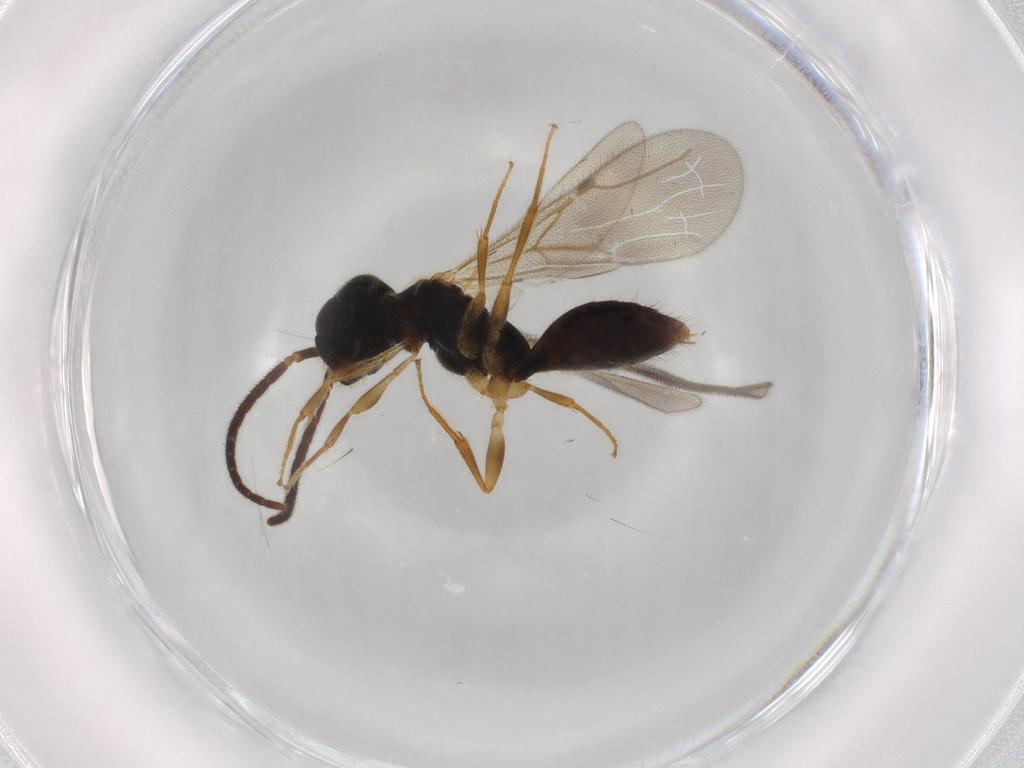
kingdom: Animalia
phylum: Arthropoda
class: Insecta
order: Hymenoptera
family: Bethylidae
